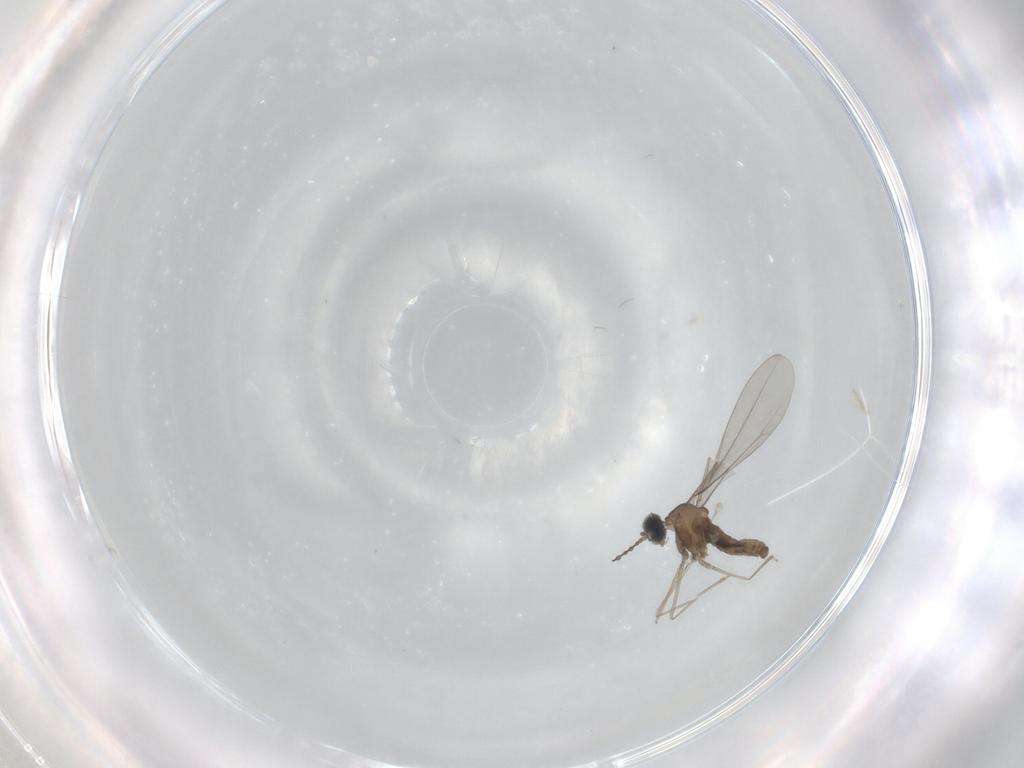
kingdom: Animalia
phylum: Arthropoda
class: Insecta
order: Diptera
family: Cecidomyiidae
